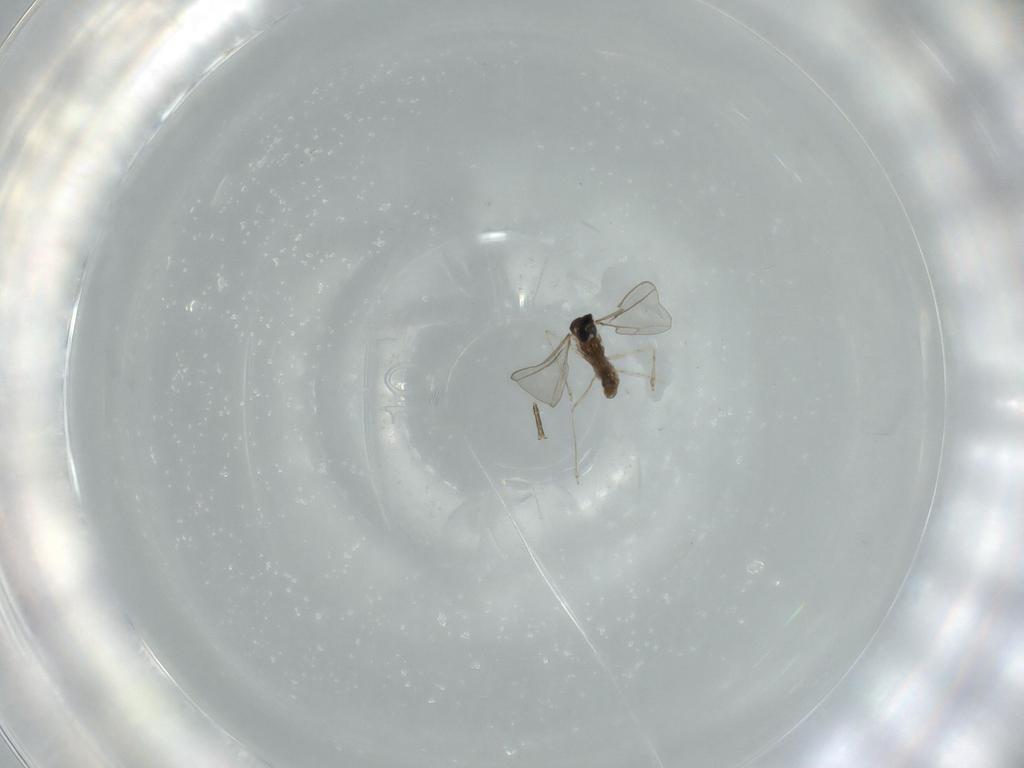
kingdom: Animalia
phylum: Arthropoda
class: Insecta
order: Diptera
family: Phoridae
